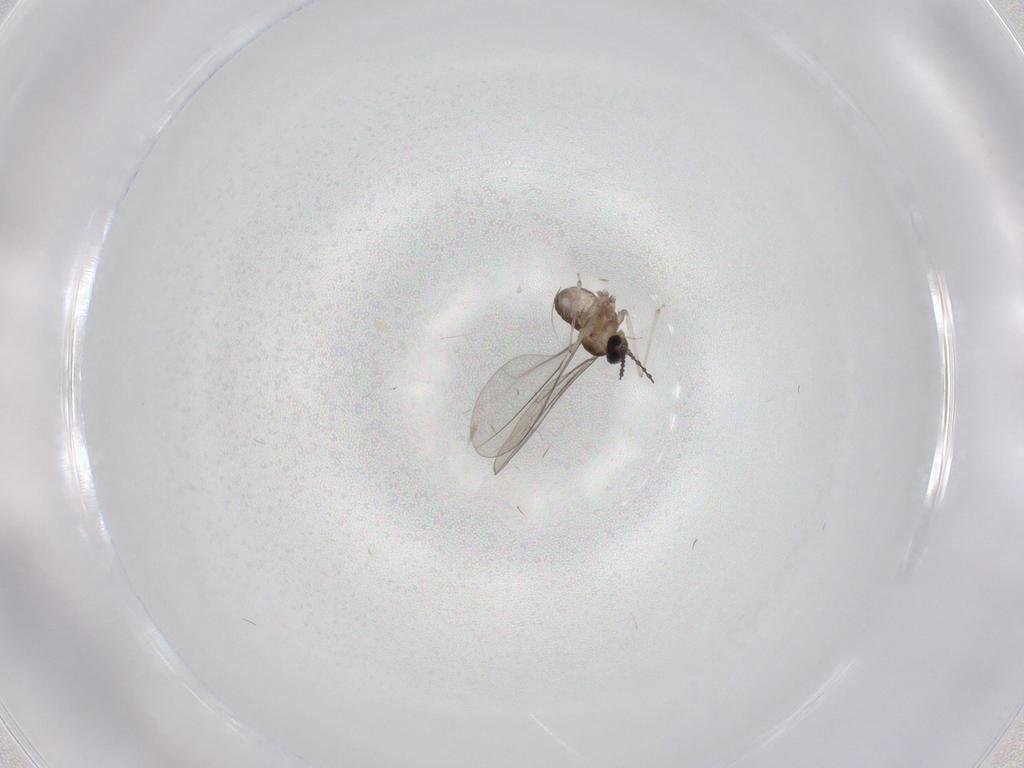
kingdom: Animalia
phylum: Arthropoda
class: Insecta
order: Diptera
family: Cecidomyiidae
